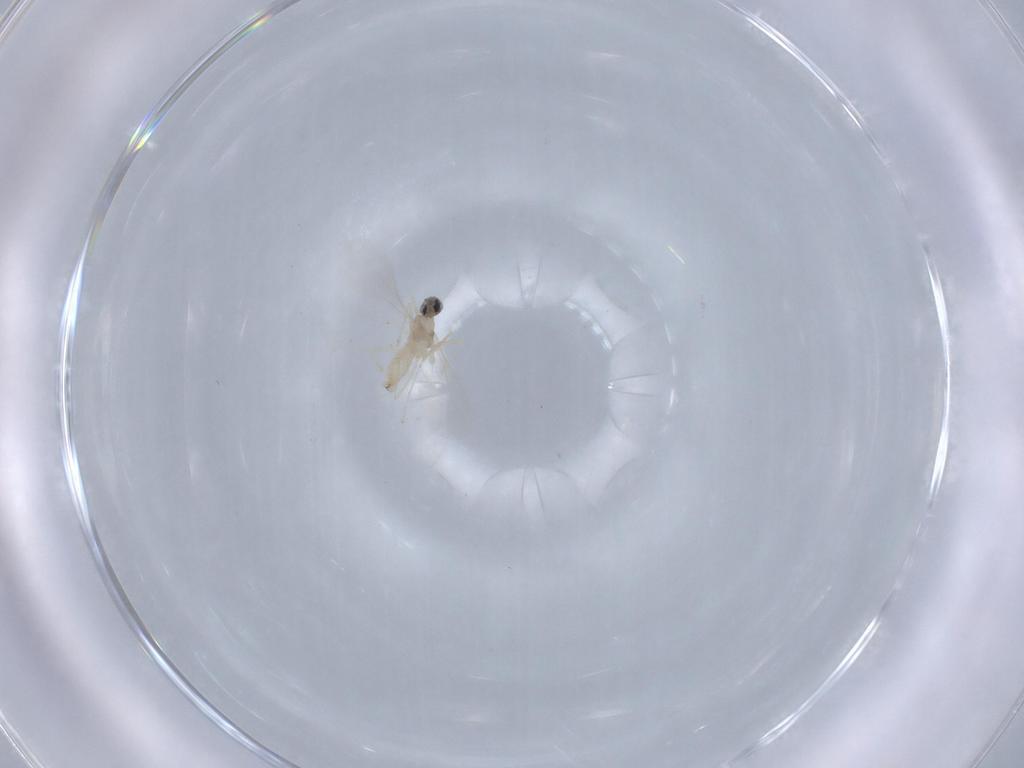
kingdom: Animalia
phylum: Arthropoda
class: Insecta
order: Diptera
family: Cecidomyiidae
